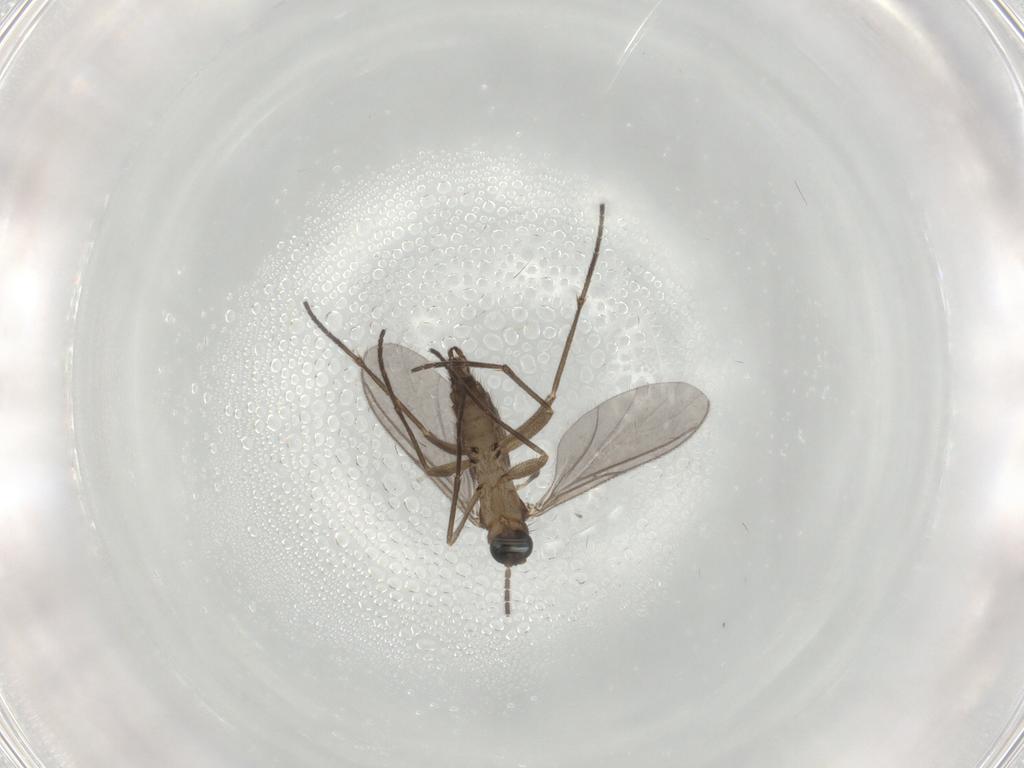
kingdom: Animalia
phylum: Arthropoda
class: Insecta
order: Diptera
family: Sciaridae
